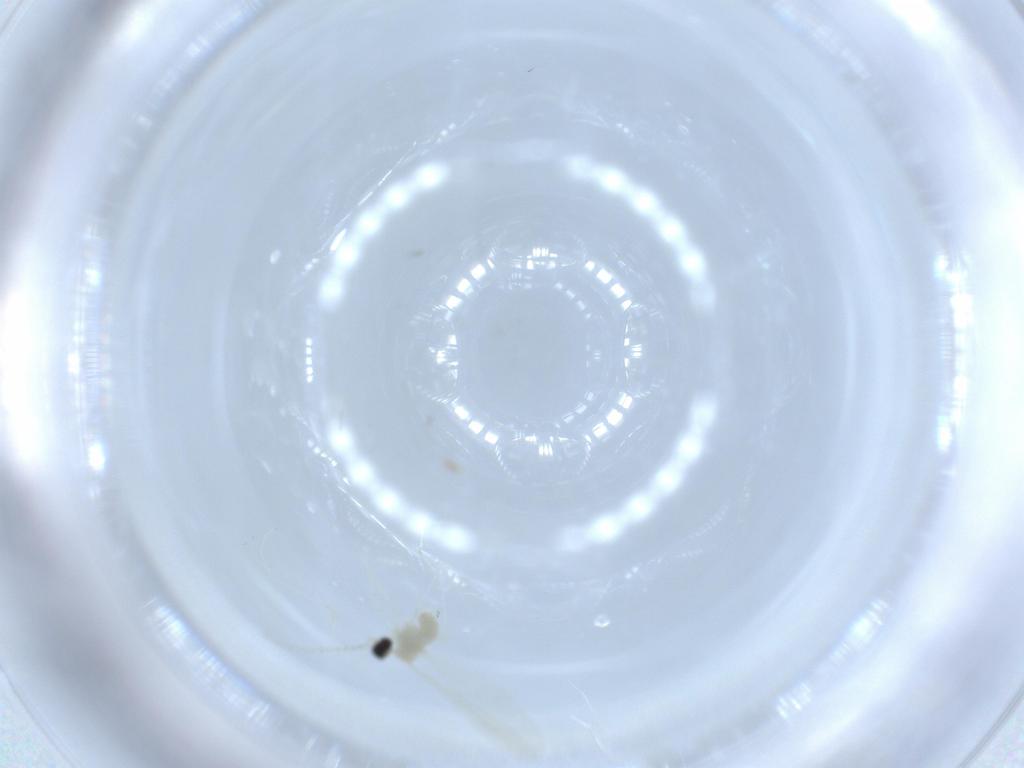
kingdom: Animalia
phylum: Arthropoda
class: Insecta
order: Diptera
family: Cecidomyiidae
